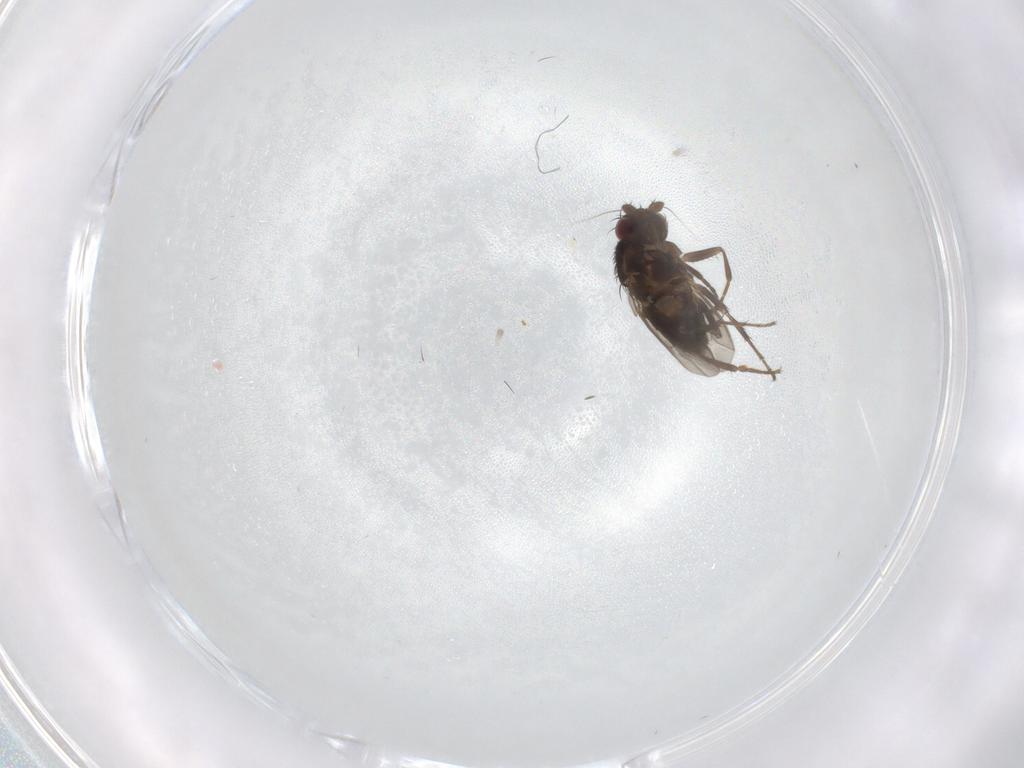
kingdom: Animalia
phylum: Arthropoda
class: Insecta
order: Diptera
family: Sphaeroceridae
